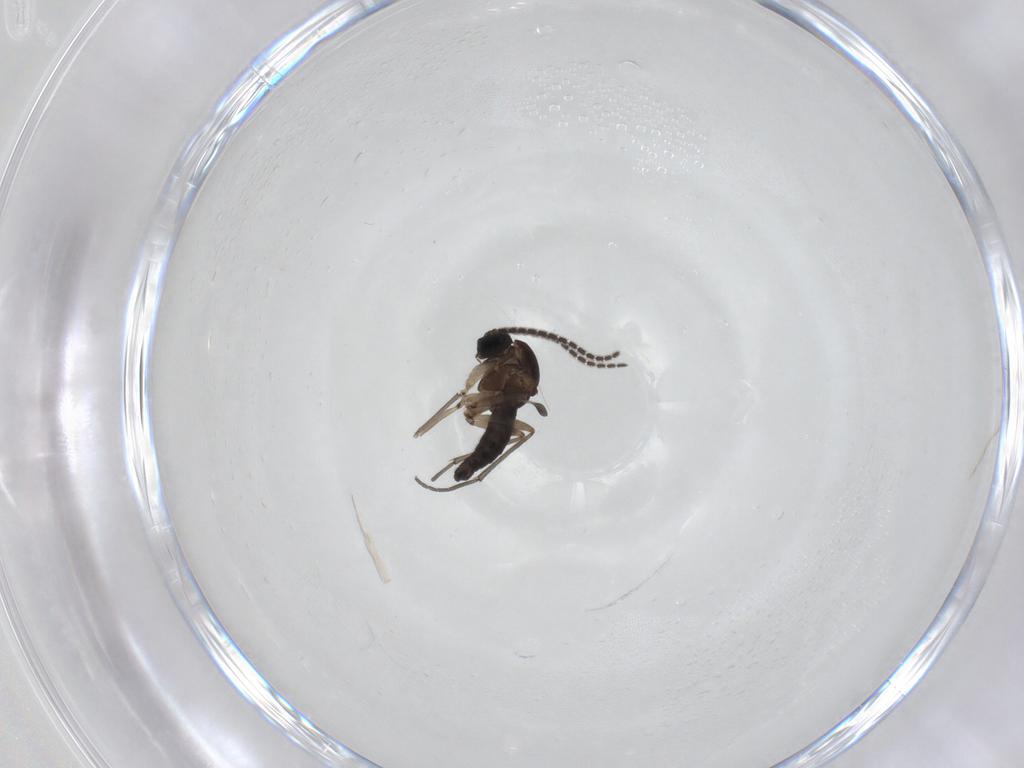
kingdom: Animalia
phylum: Arthropoda
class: Insecta
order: Diptera
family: Sciaridae
